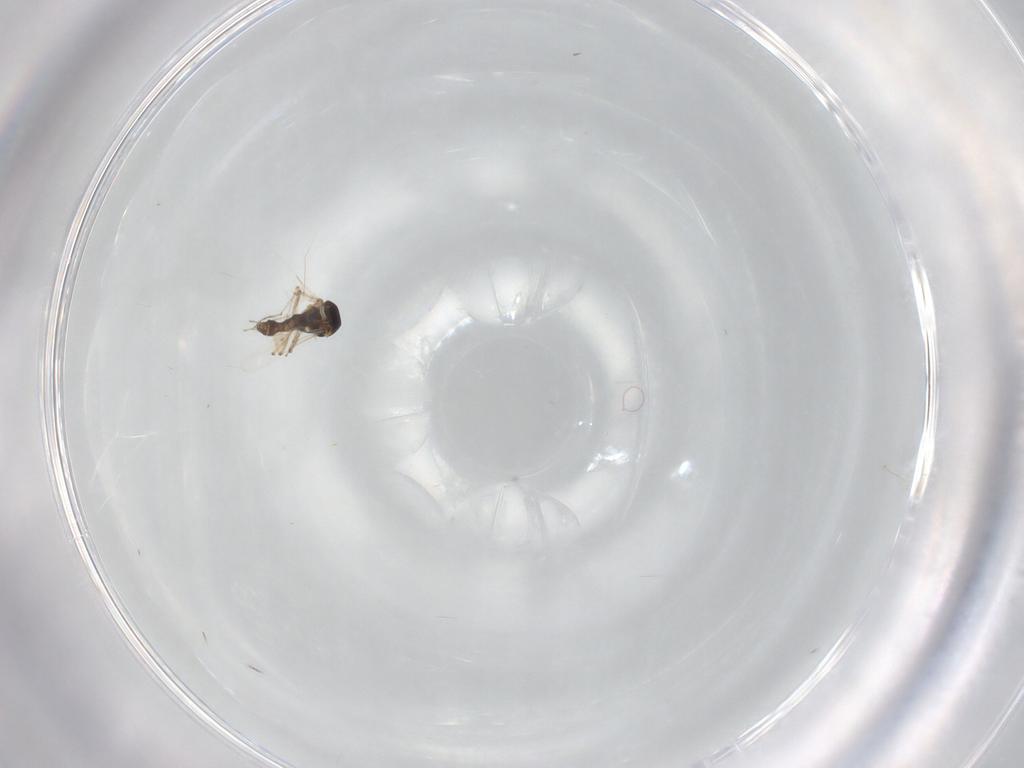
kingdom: Animalia
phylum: Arthropoda
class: Insecta
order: Diptera
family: Ceratopogonidae
